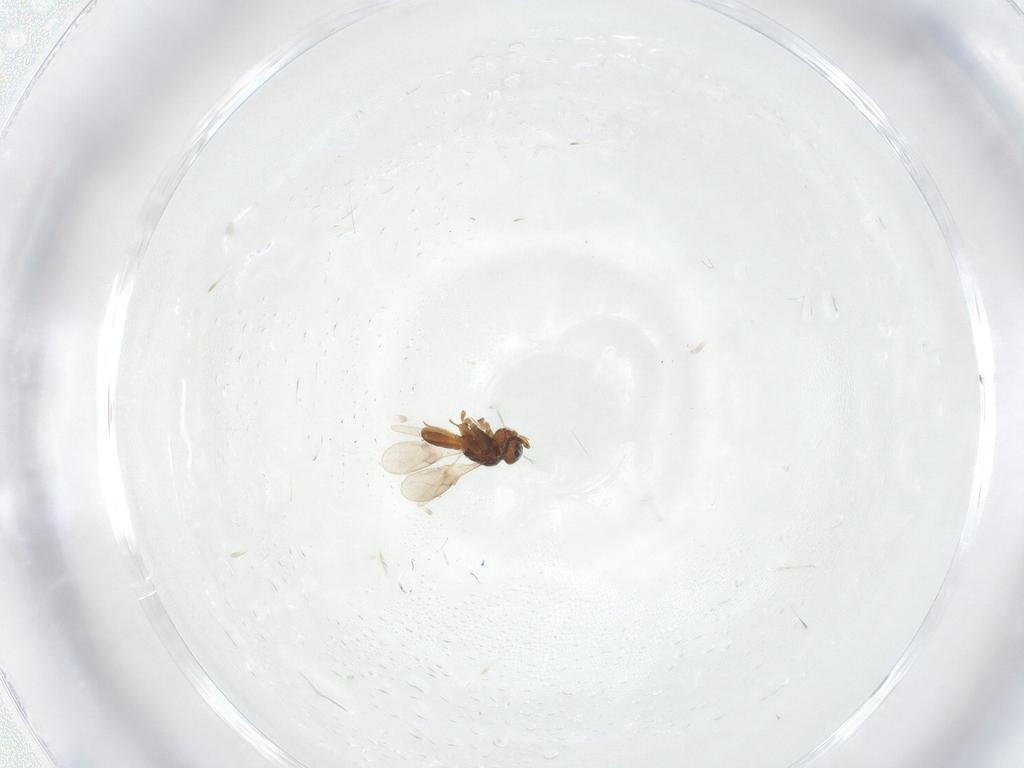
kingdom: Animalia
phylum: Arthropoda
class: Insecta
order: Hymenoptera
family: Scelionidae
